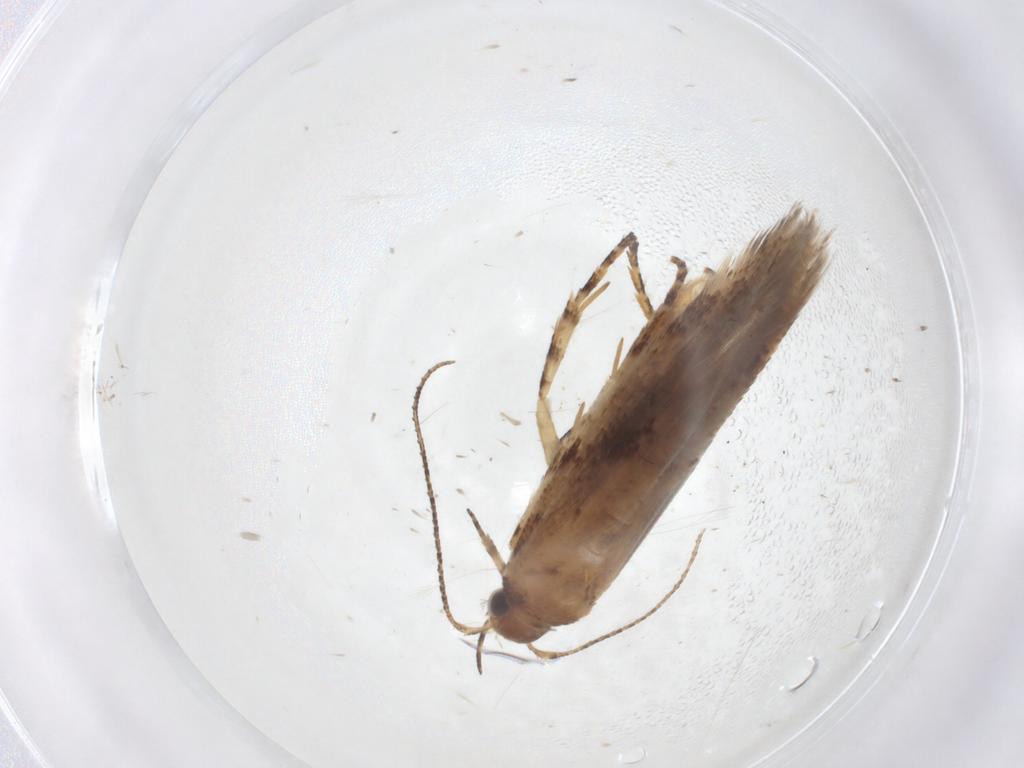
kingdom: Animalia
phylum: Arthropoda
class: Insecta
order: Lepidoptera
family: Gelechiidae
